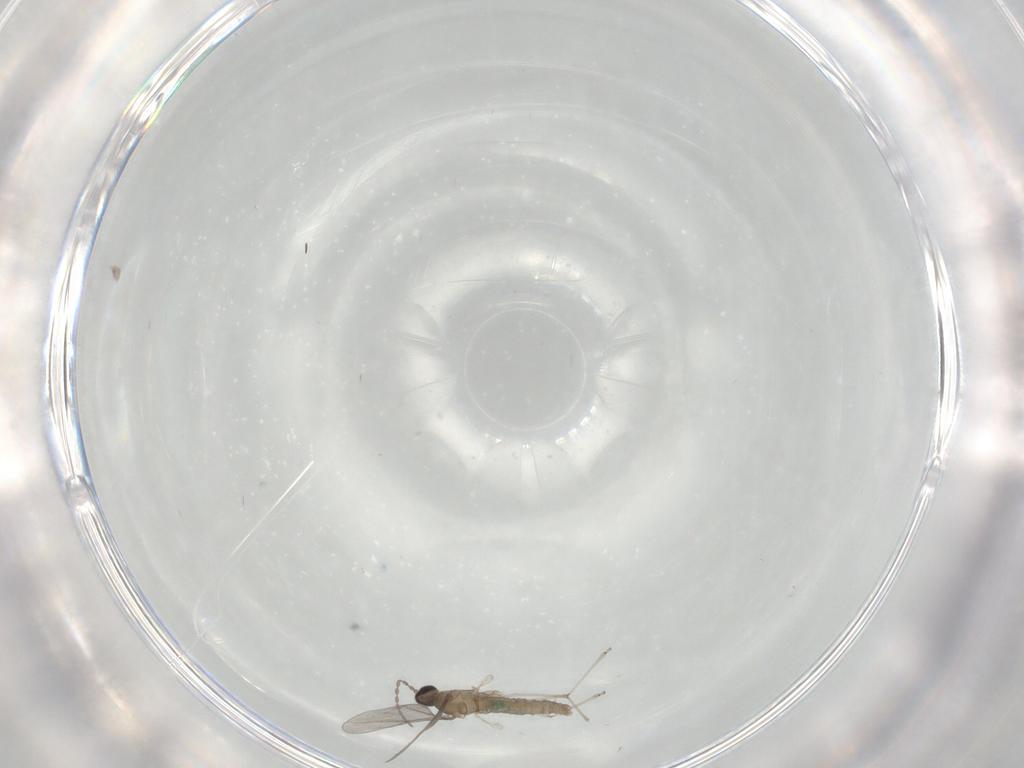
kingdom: Animalia
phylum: Arthropoda
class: Insecta
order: Diptera
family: Cecidomyiidae
